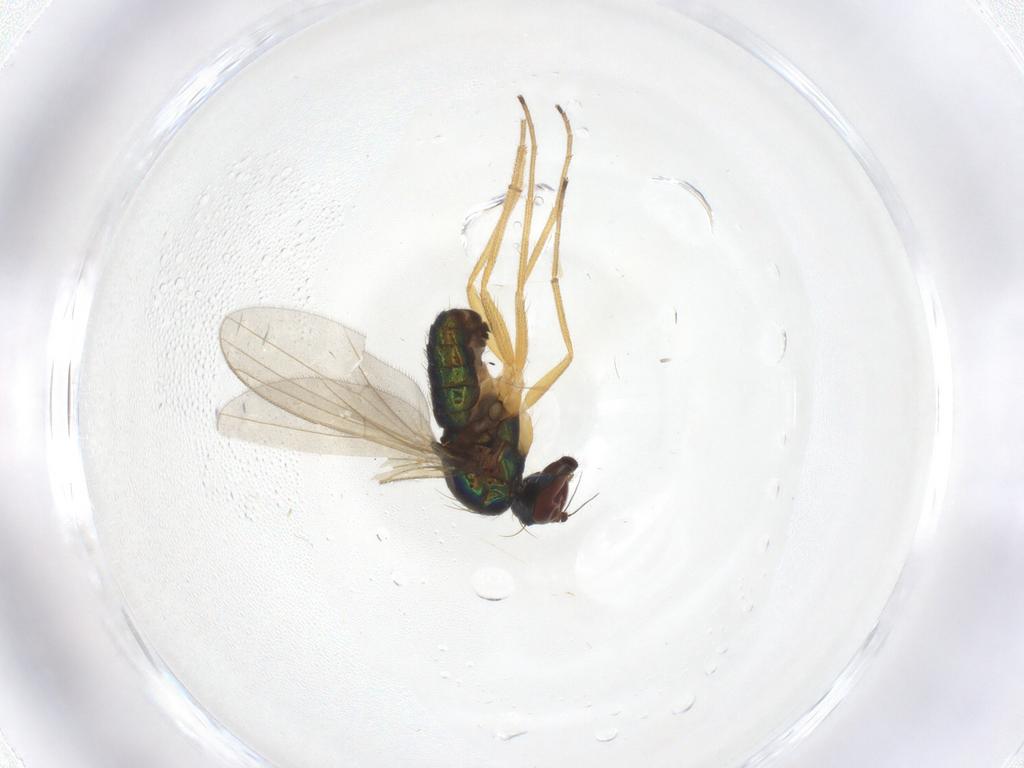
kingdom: Animalia
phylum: Arthropoda
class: Insecta
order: Diptera
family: Dolichopodidae
